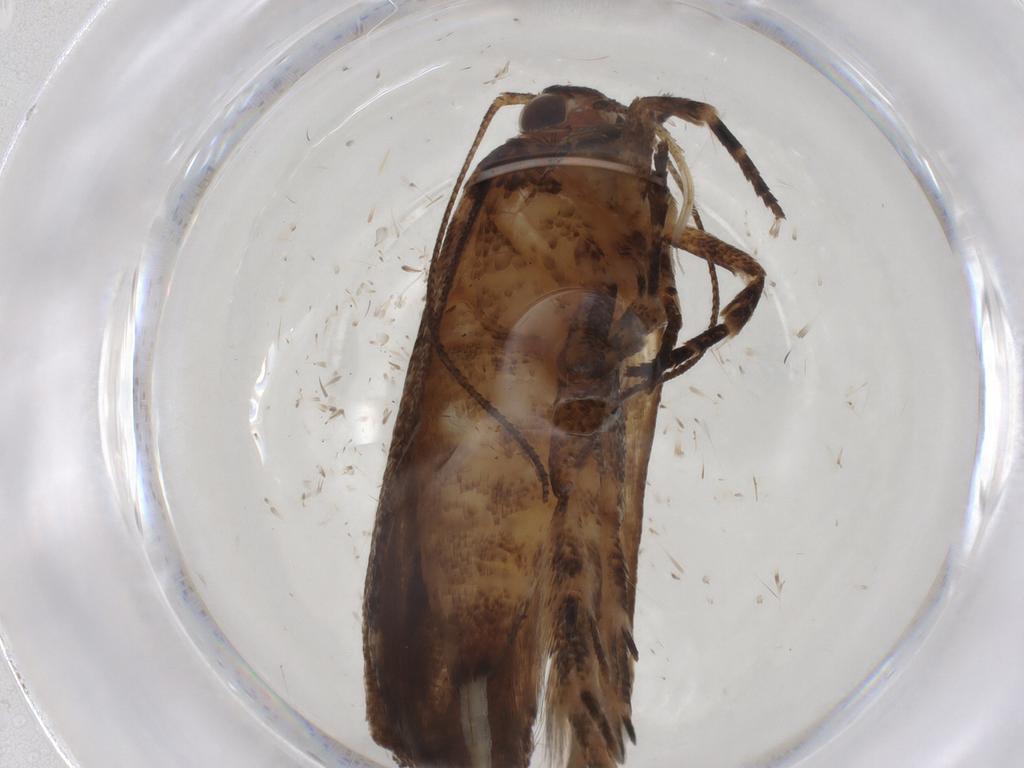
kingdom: Animalia
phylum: Arthropoda
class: Insecta
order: Lepidoptera
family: Gelechiidae
